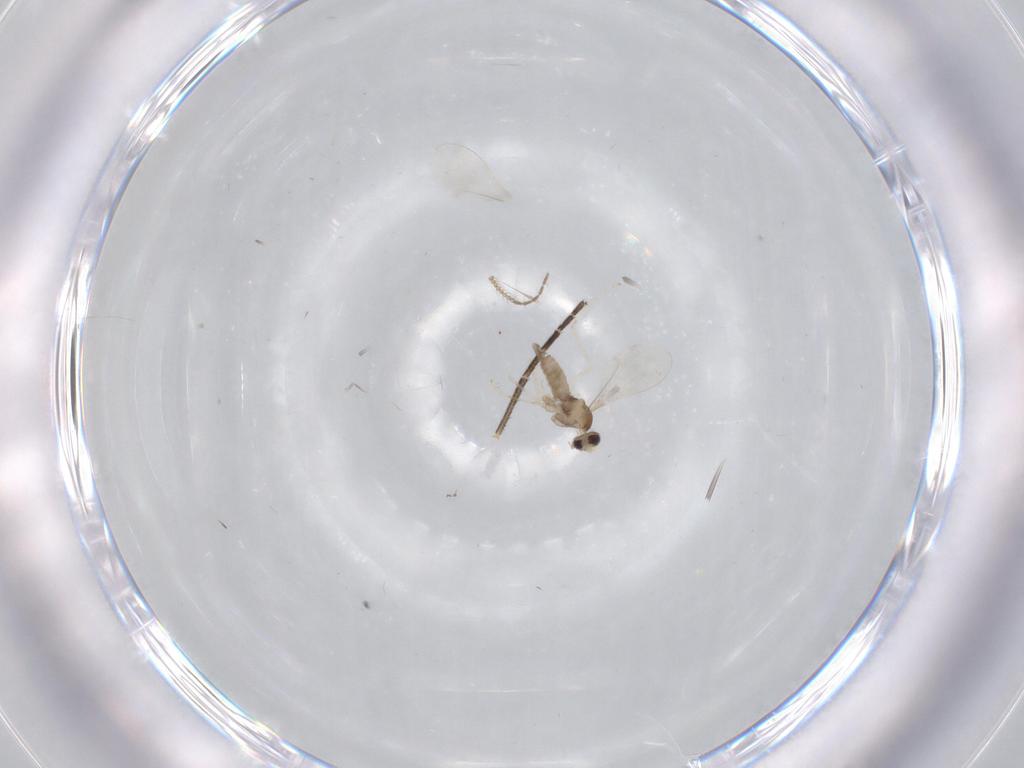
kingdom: Animalia
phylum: Arthropoda
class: Insecta
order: Diptera
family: Mycetophilidae
